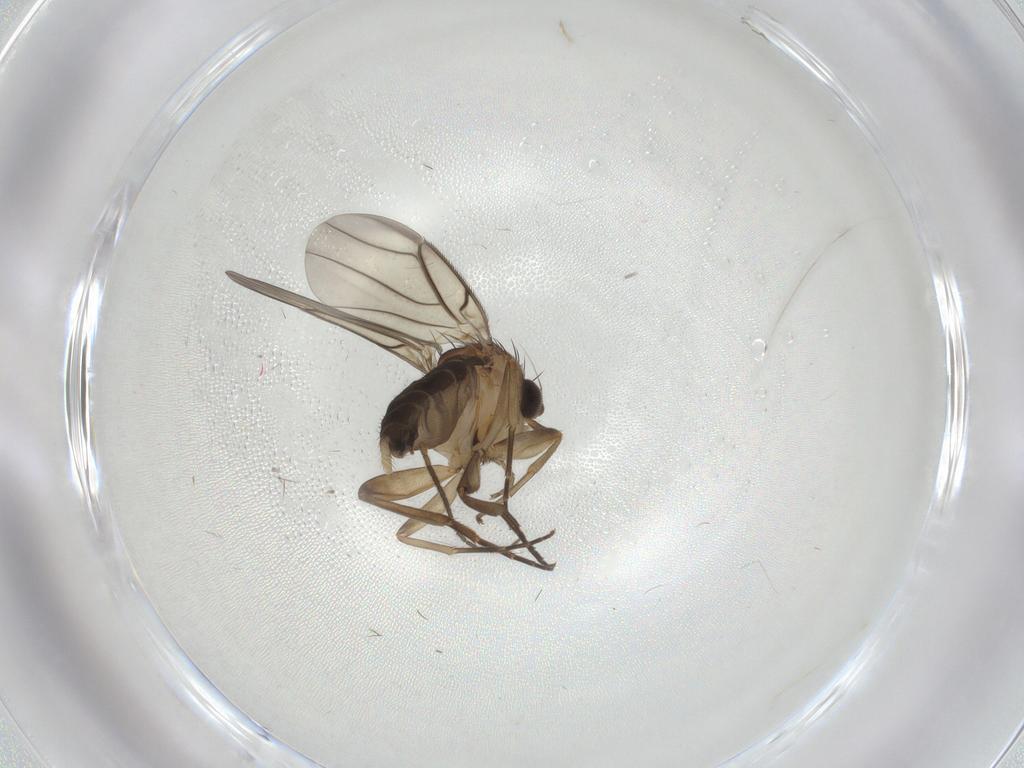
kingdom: Animalia
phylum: Arthropoda
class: Insecta
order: Diptera
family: Phoridae
